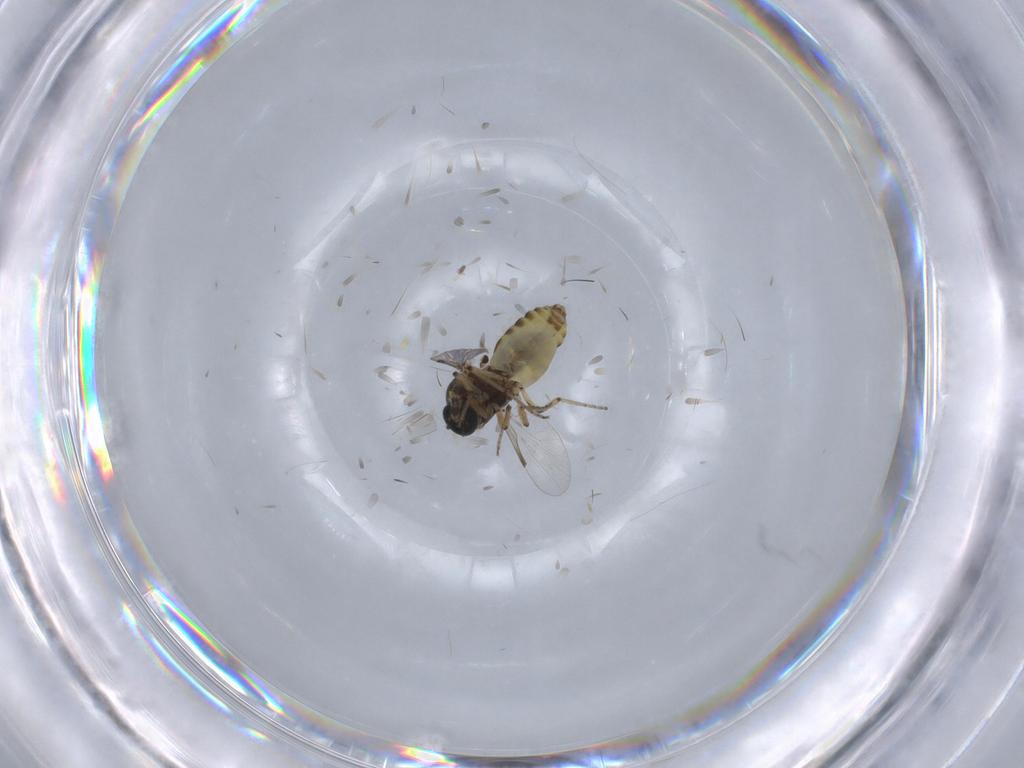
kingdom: Animalia
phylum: Arthropoda
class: Insecta
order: Diptera
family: Cecidomyiidae
